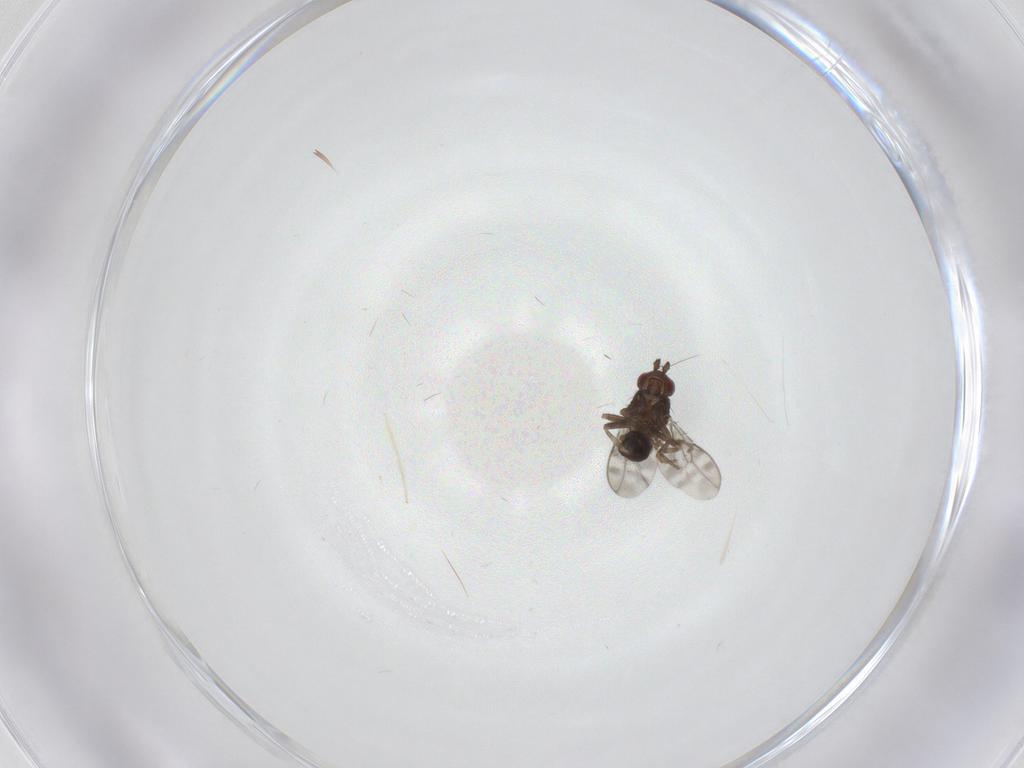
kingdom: Animalia
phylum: Arthropoda
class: Insecta
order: Diptera
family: Sphaeroceridae
